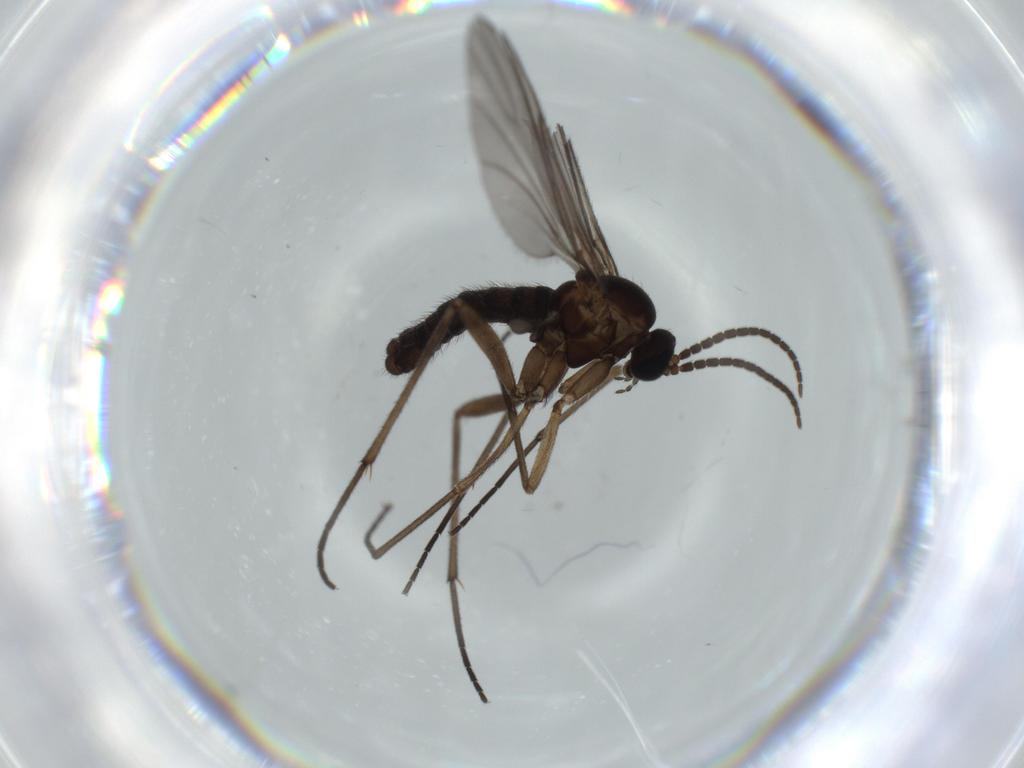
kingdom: Animalia
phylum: Arthropoda
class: Insecta
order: Diptera
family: Sciaridae
